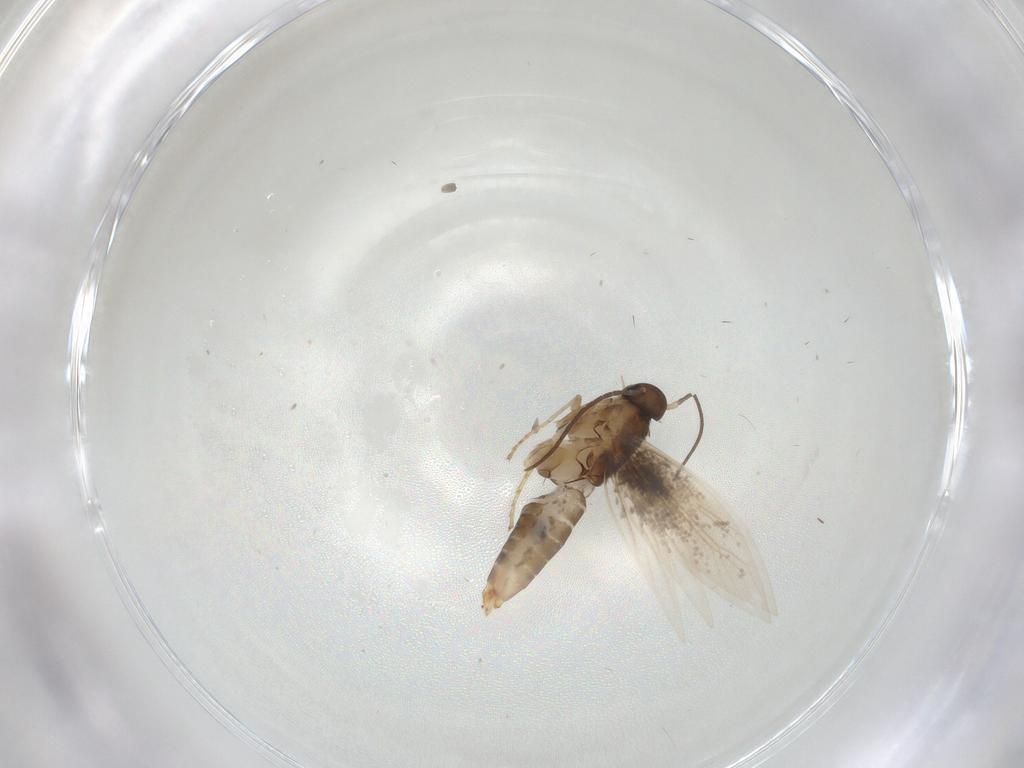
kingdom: Animalia
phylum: Arthropoda
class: Insecta
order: Lepidoptera
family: Heliozelidae
